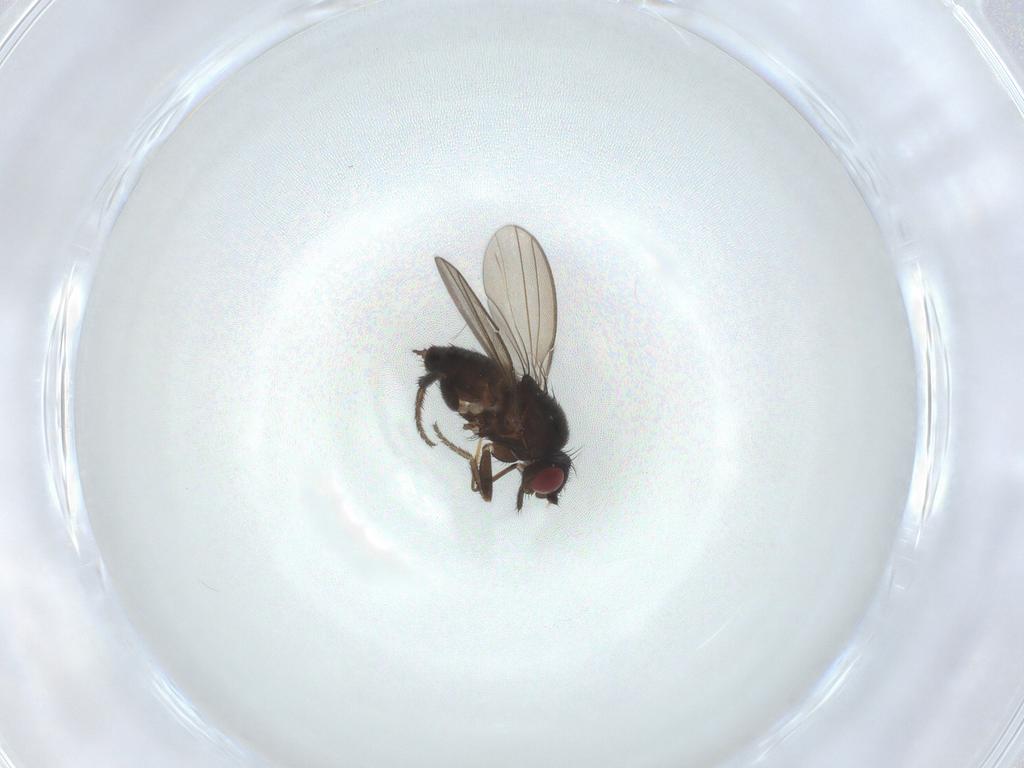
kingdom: Animalia
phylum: Arthropoda
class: Insecta
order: Diptera
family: Milichiidae
